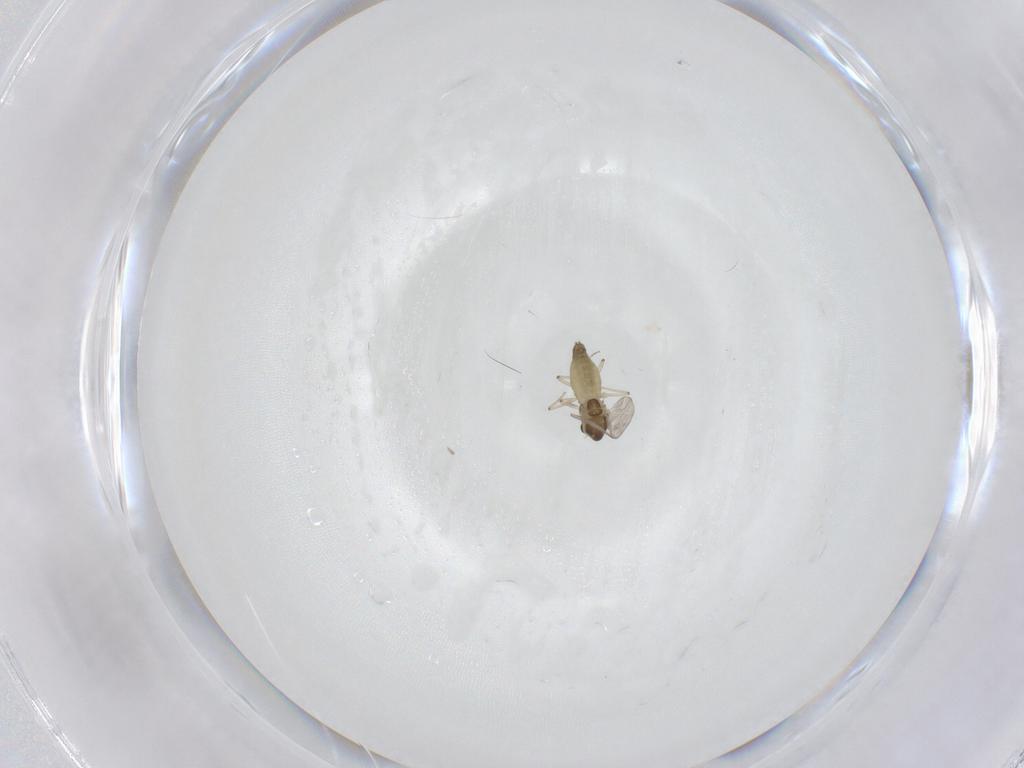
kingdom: Animalia
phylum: Arthropoda
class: Insecta
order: Diptera
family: Chironomidae
